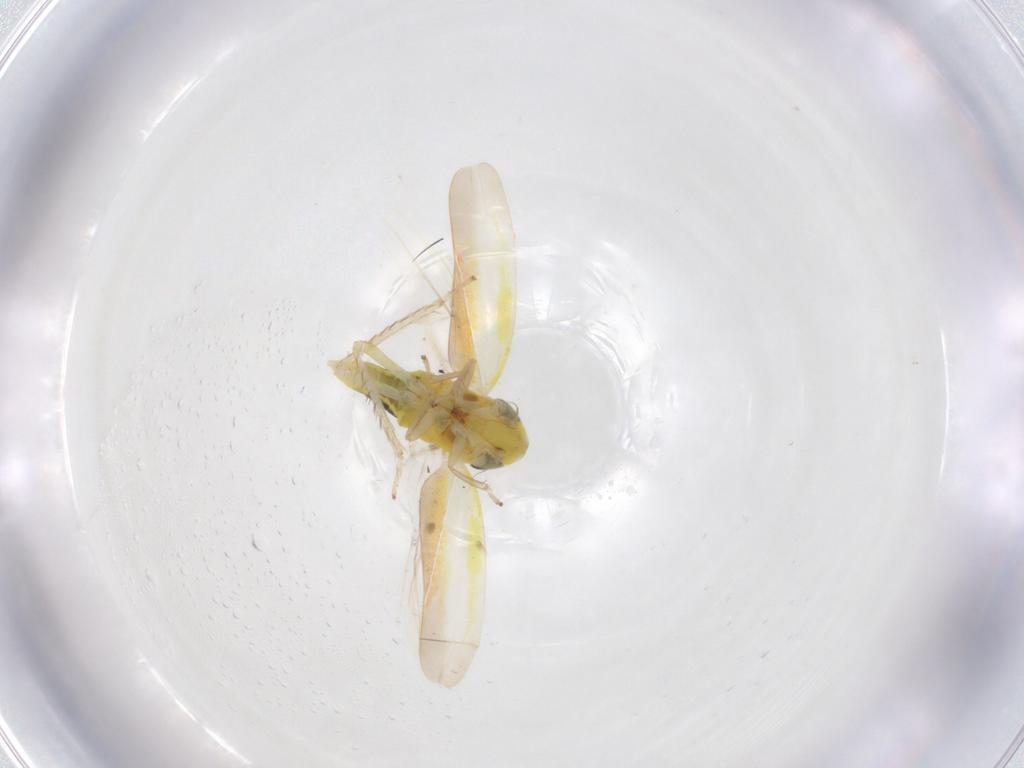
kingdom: Animalia
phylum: Arthropoda
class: Insecta
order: Hemiptera
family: Cicadellidae
